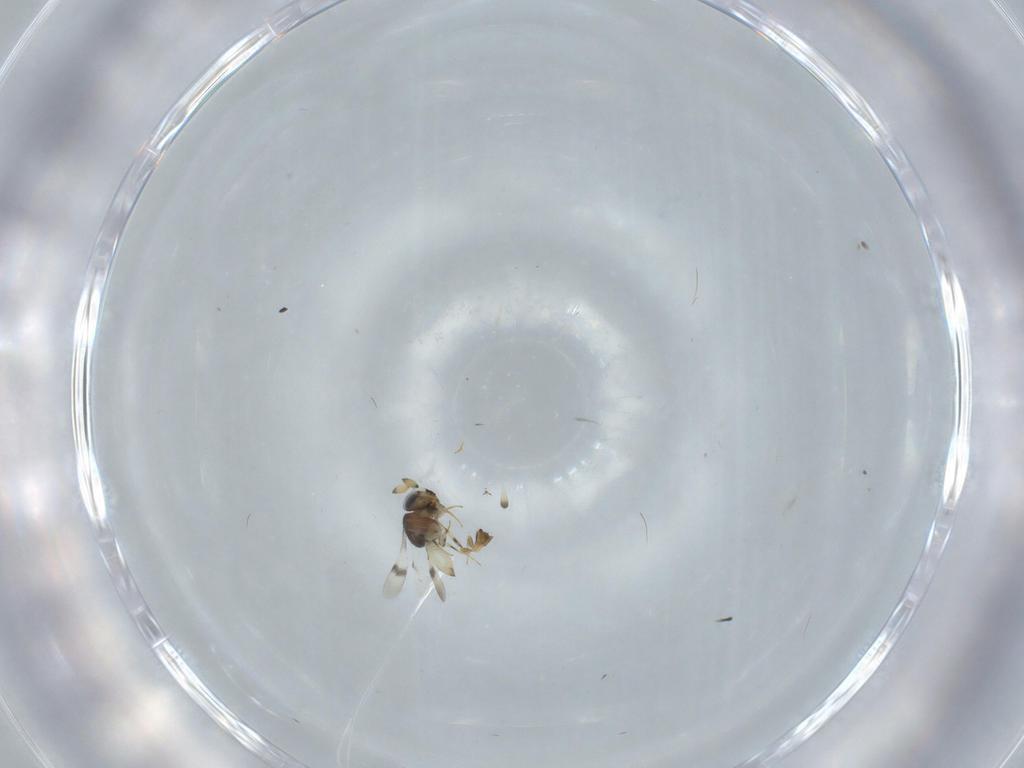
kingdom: Animalia
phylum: Arthropoda
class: Insecta
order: Hymenoptera
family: Scelionidae
